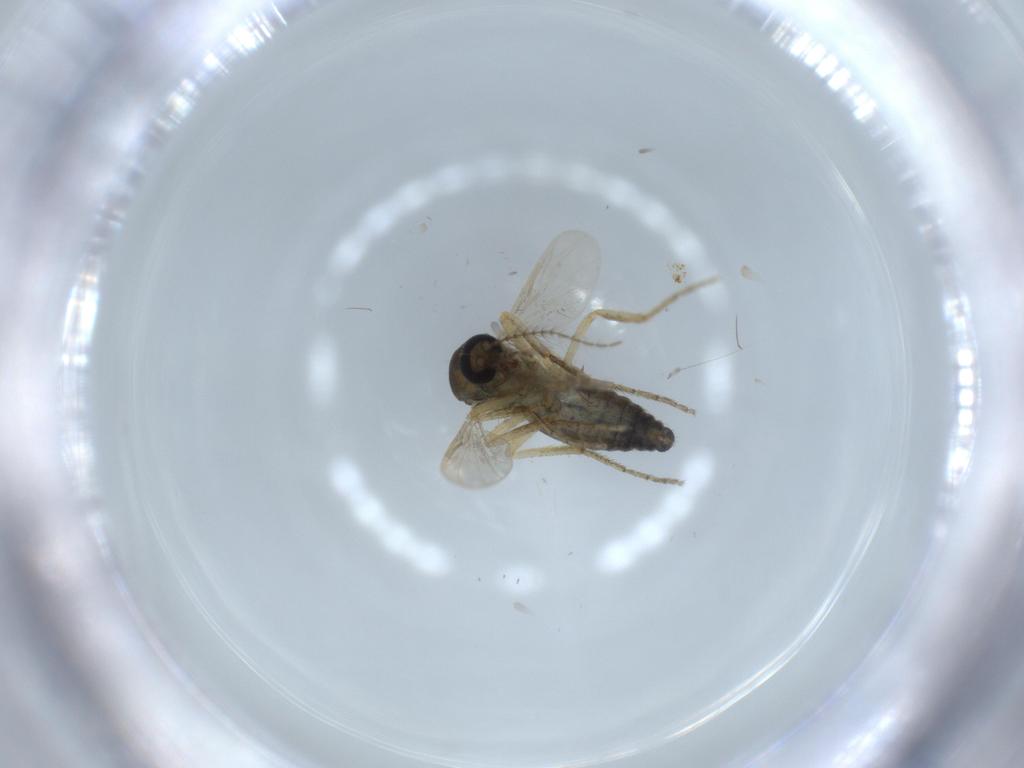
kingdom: Animalia
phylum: Arthropoda
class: Insecta
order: Diptera
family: Ceratopogonidae
